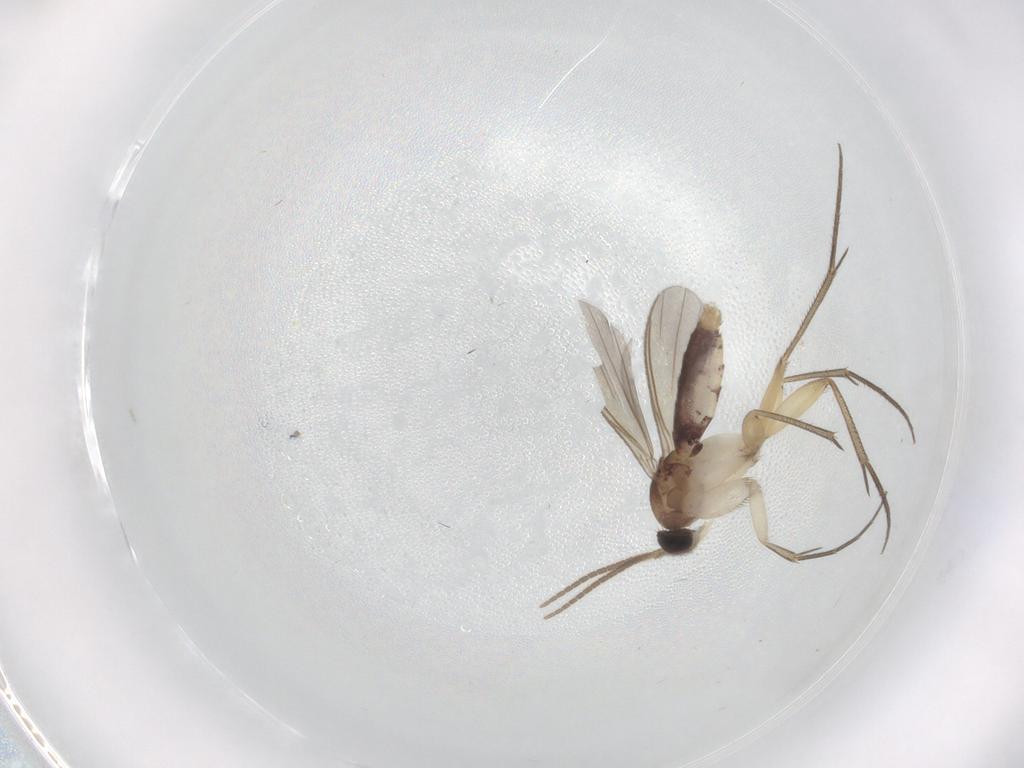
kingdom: Animalia
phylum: Arthropoda
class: Insecta
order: Diptera
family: Mycetophilidae
